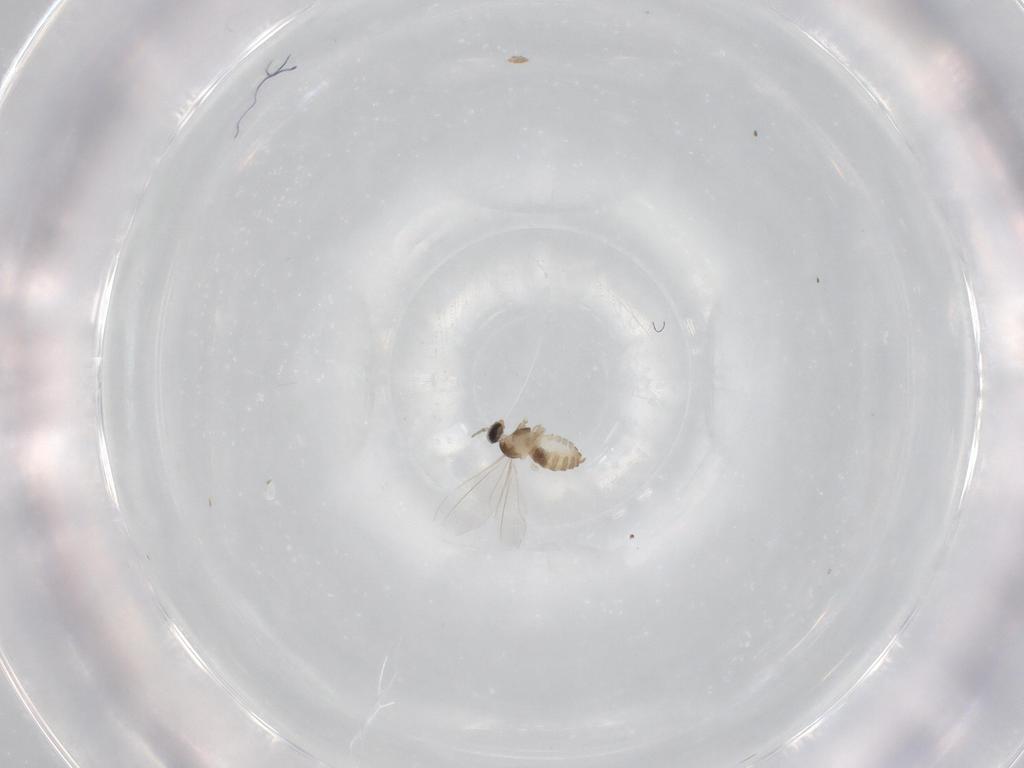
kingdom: Animalia
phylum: Arthropoda
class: Insecta
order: Diptera
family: Cecidomyiidae
